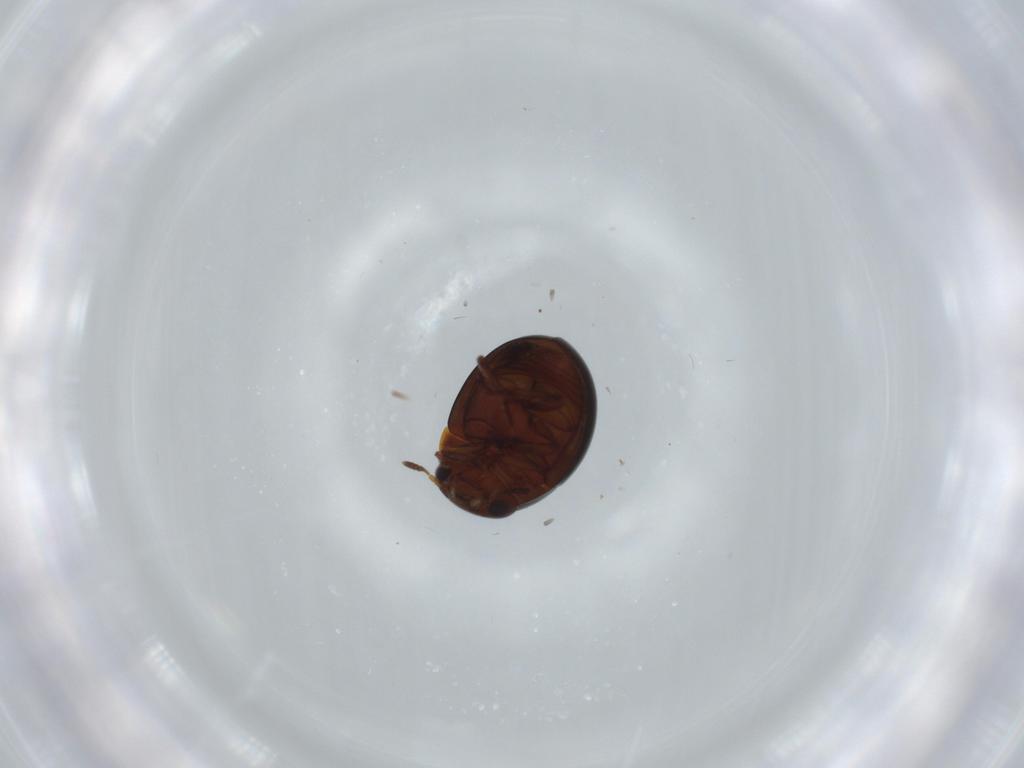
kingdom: Animalia
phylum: Arthropoda
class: Insecta
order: Coleoptera
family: Leiodidae
